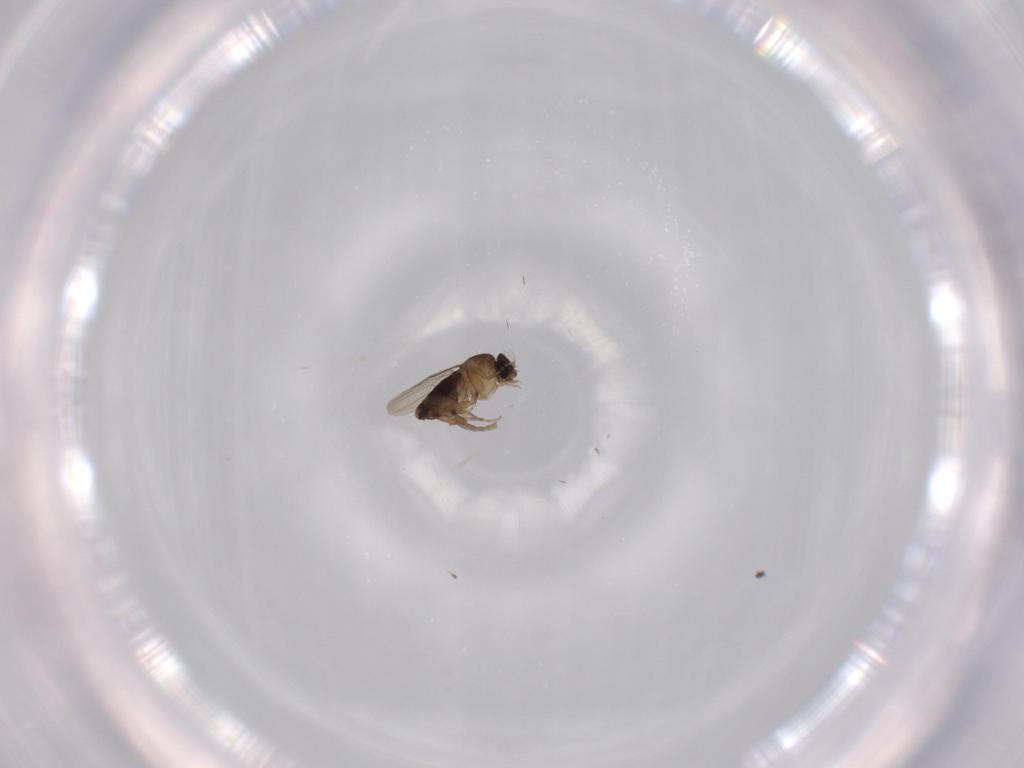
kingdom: Animalia
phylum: Arthropoda
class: Insecta
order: Diptera
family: Phoridae
